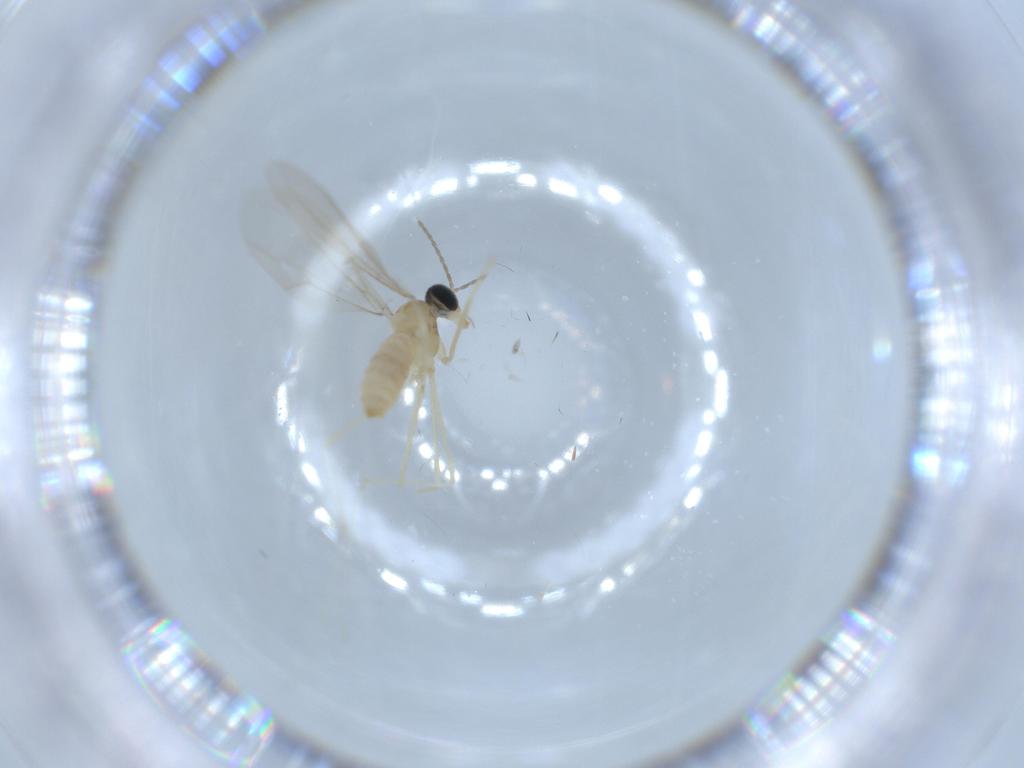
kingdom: Animalia
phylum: Arthropoda
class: Insecta
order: Diptera
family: Cecidomyiidae
